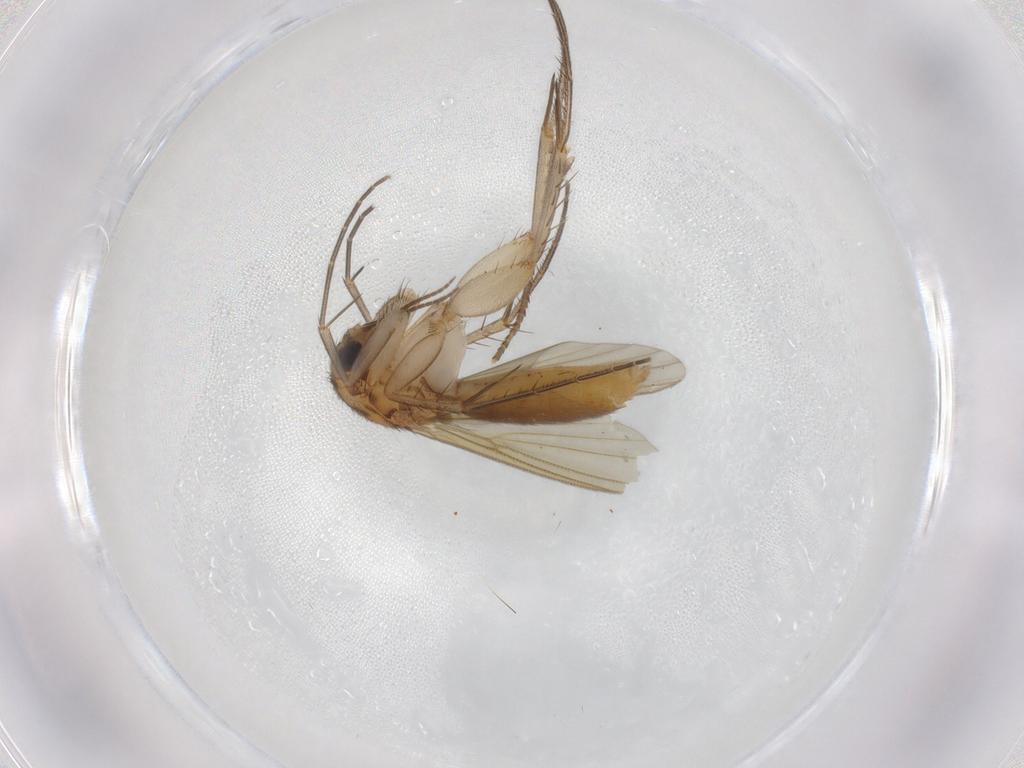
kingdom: Animalia
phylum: Arthropoda
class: Insecta
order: Diptera
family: Mycetophilidae
